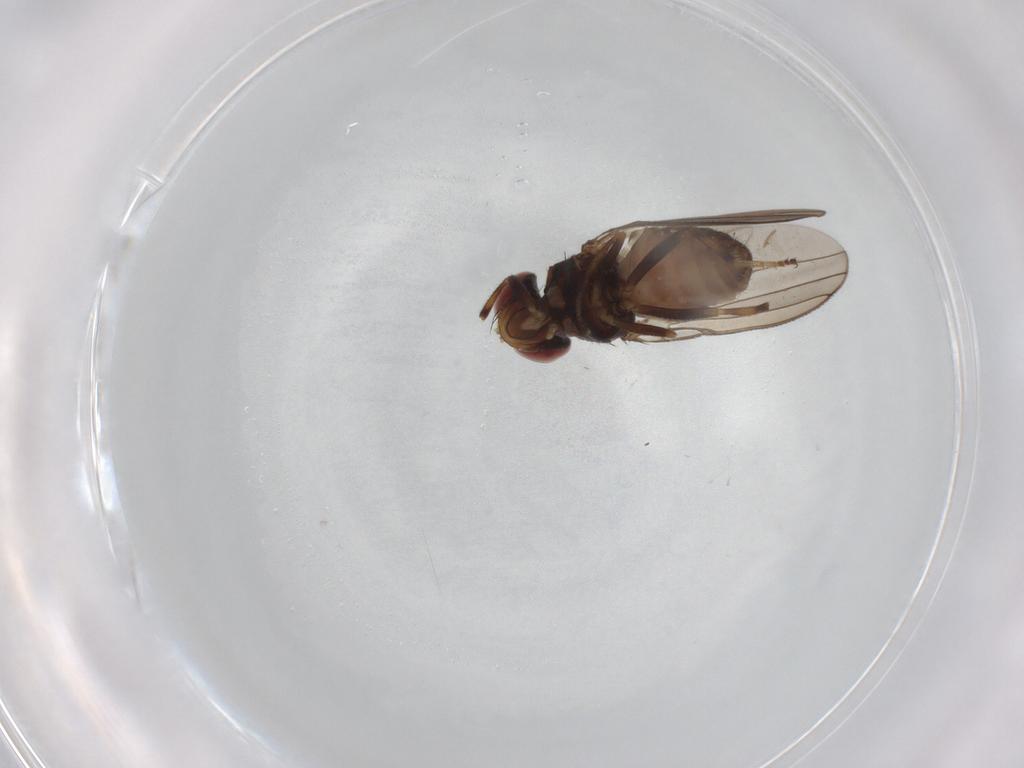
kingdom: Animalia
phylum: Arthropoda
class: Insecta
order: Diptera
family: Aulacigastridae
